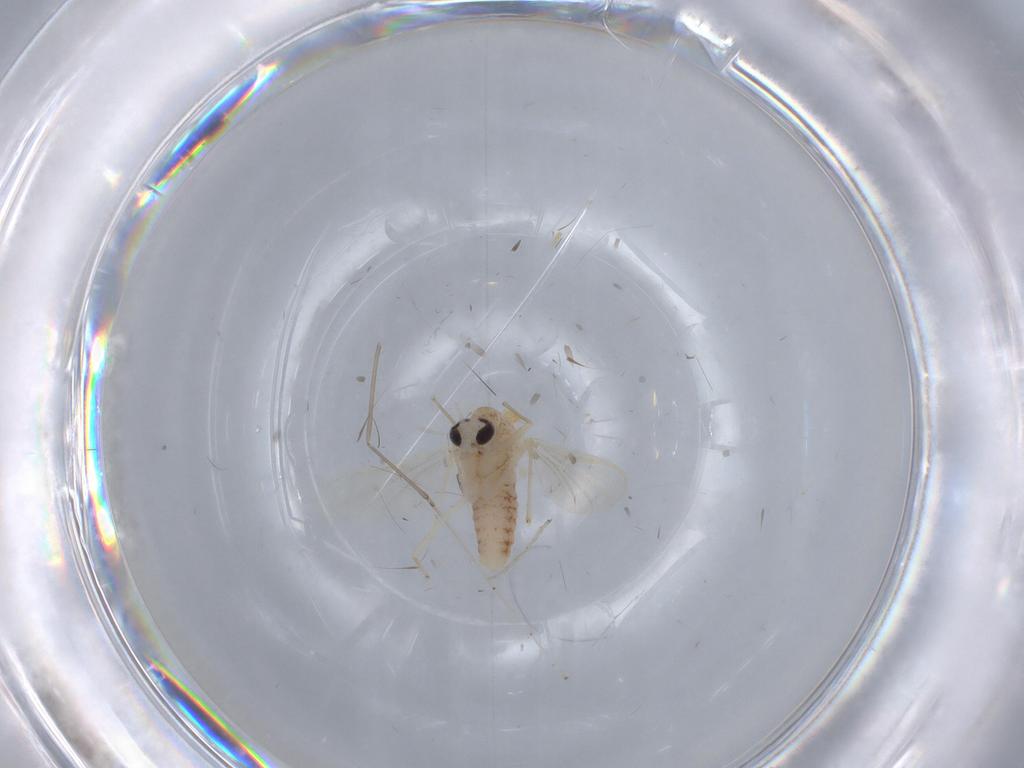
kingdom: Animalia
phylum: Arthropoda
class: Insecta
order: Diptera
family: Chironomidae
